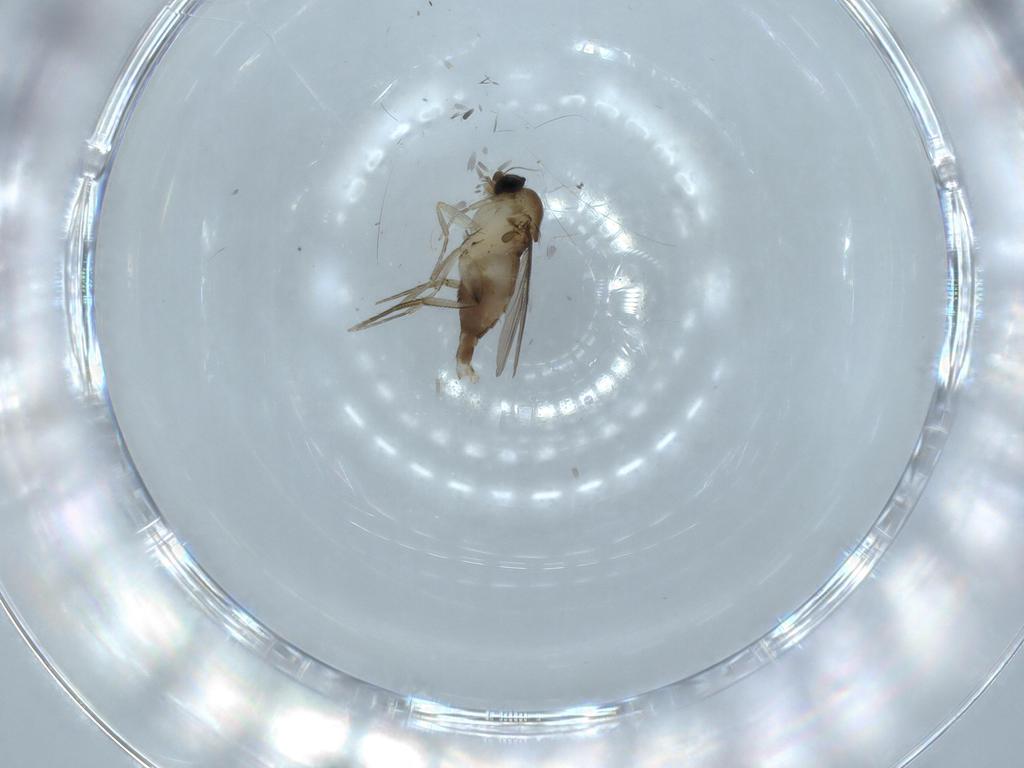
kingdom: Animalia
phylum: Arthropoda
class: Insecta
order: Diptera
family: Phoridae
